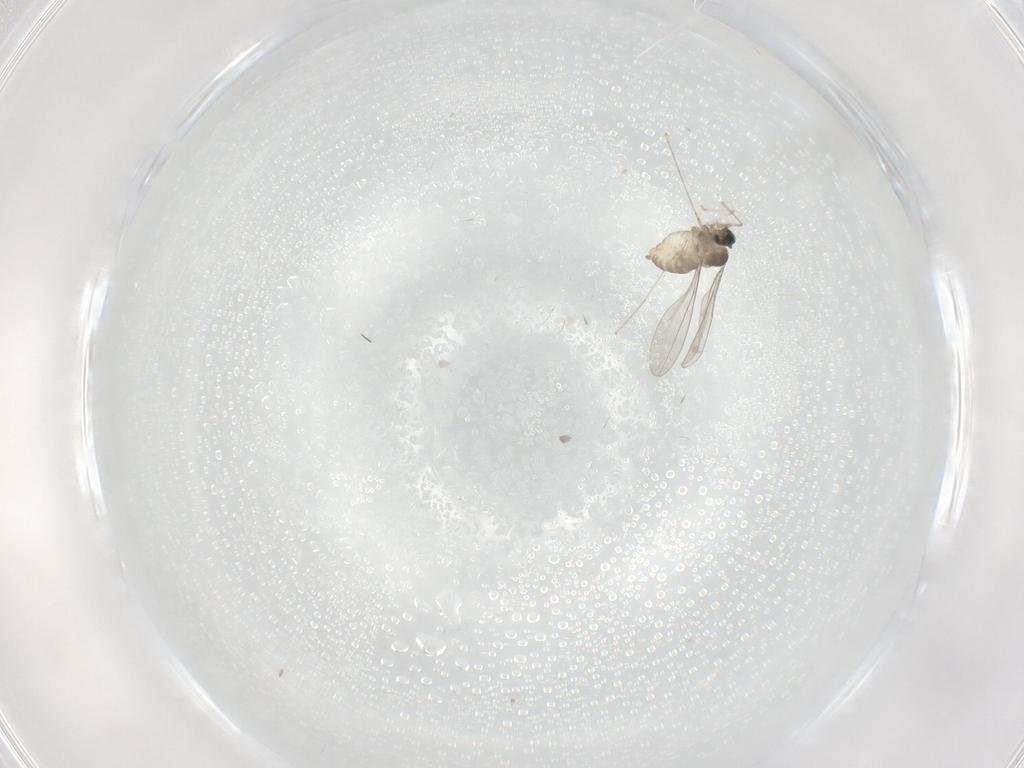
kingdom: Animalia
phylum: Arthropoda
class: Insecta
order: Diptera
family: Cecidomyiidae
